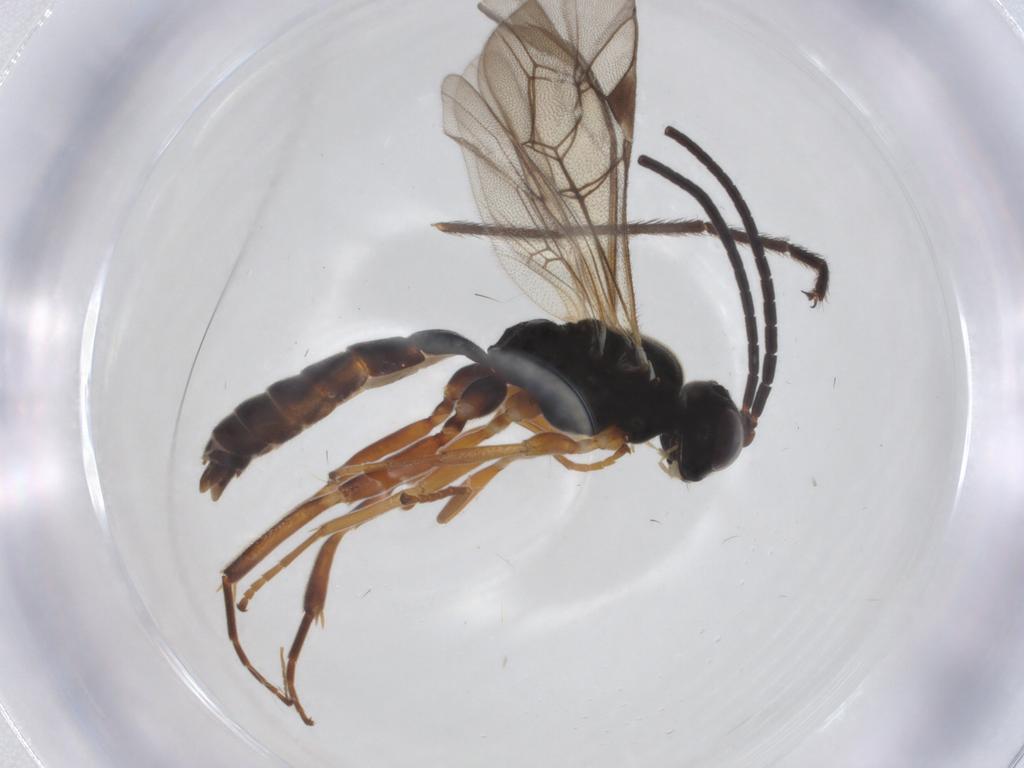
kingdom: Animalia
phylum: Arthropoda
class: Insecta
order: Hymenoptera
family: Ichneumonidae
